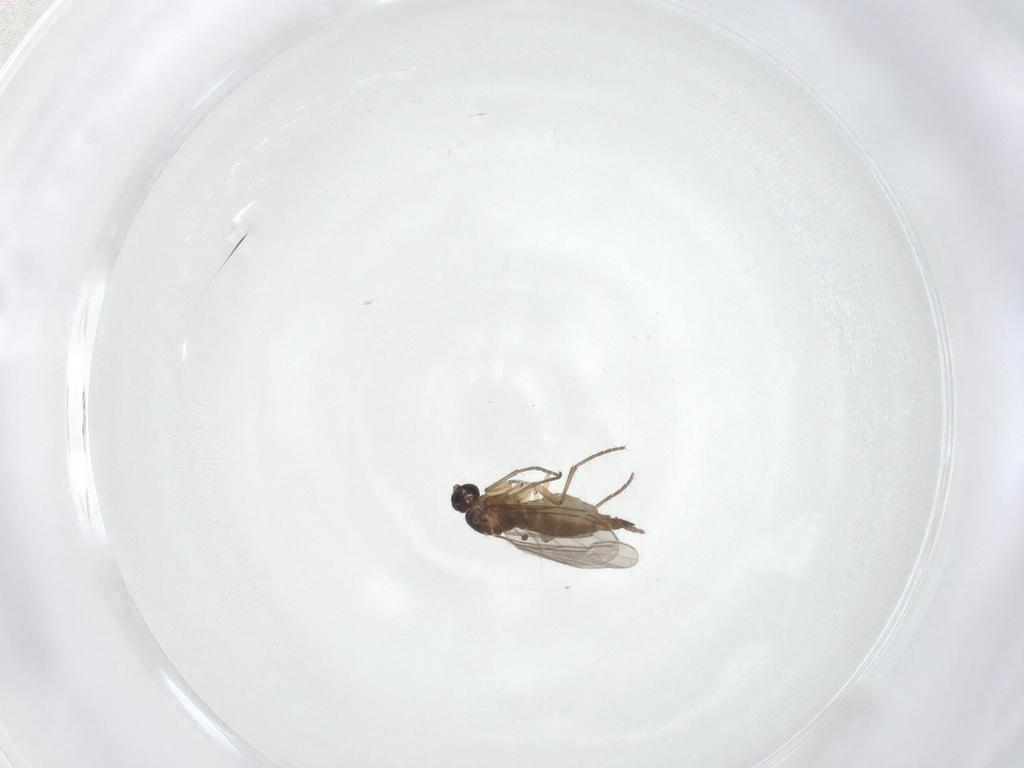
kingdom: Animalia
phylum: Arthropoda
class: Insecta
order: Diptera
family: Sciaridae
